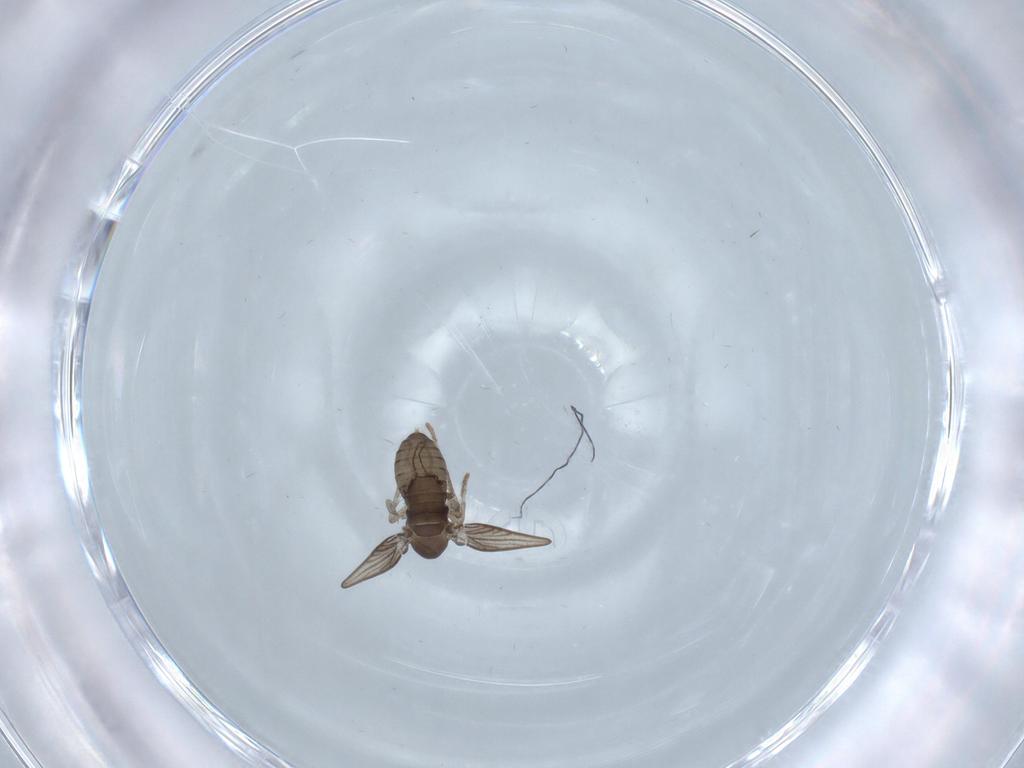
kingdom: Animalia
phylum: Arthropoda
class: Insecta
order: Diptera
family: Psychodidae
